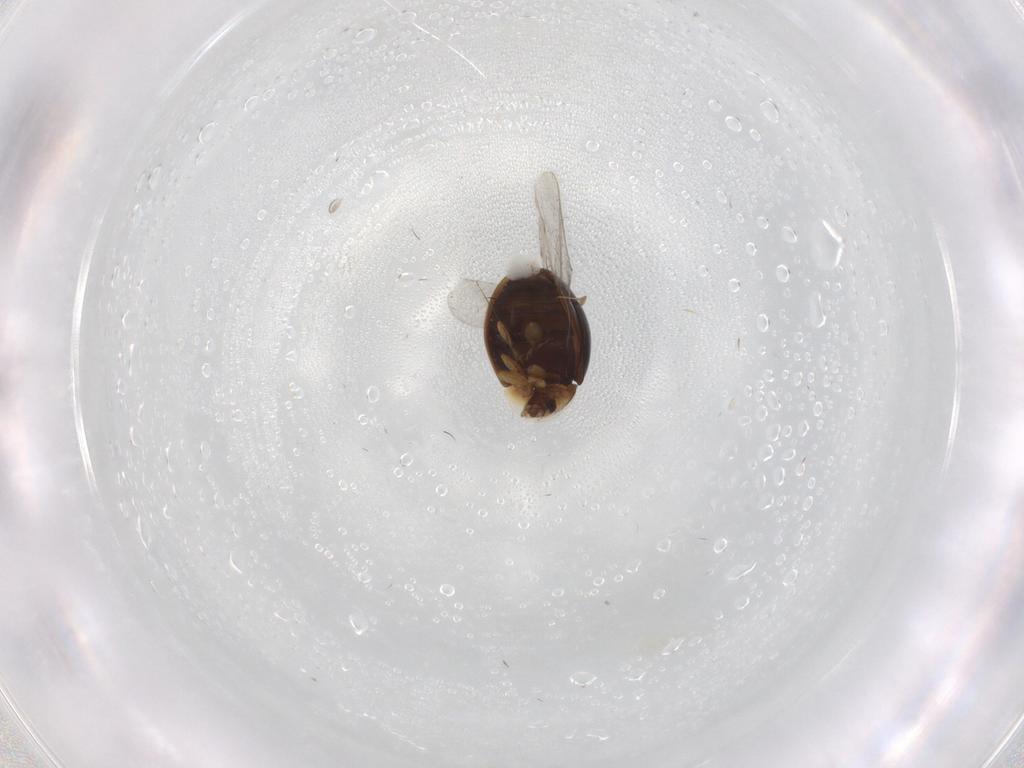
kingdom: Animalia
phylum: Arthropoda
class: Insecta
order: Coleoptera
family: Corylophidae
